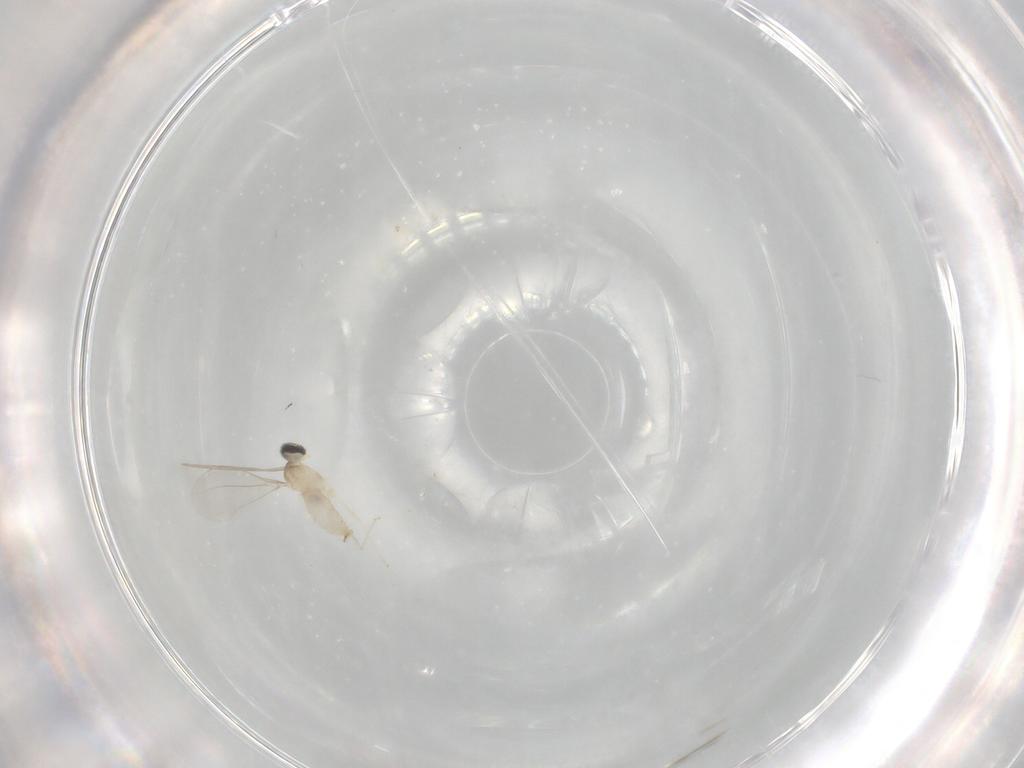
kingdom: Animalia
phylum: Arthropoda
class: Insecta
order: Diptera
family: Cecidomyiidae
